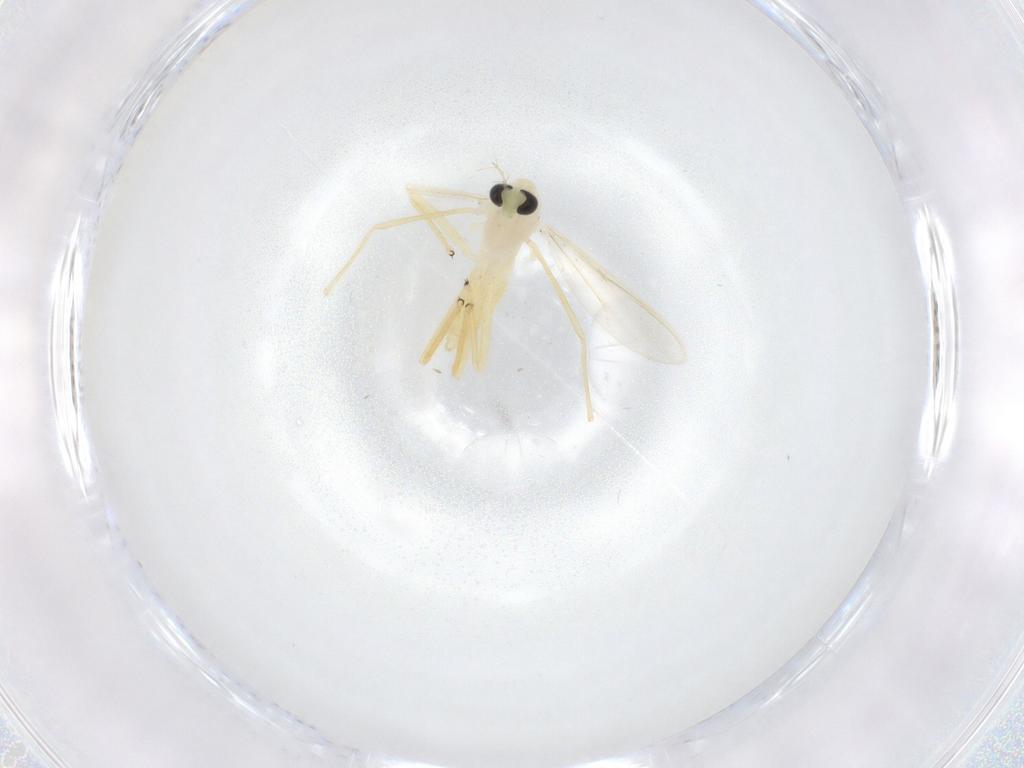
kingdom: Animalia
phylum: Arthropoda
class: Insecta
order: Diptera
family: Chironomidae
